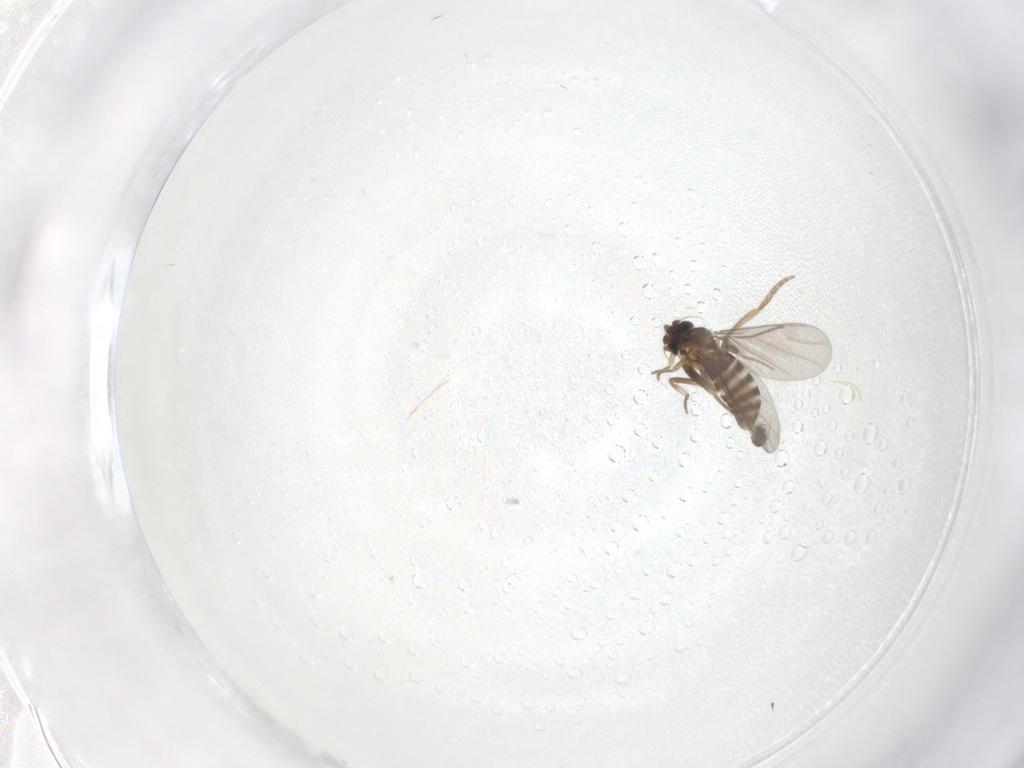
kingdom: Animalia
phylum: Arthropoda
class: Insecta
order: Diptera
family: Phoridae
